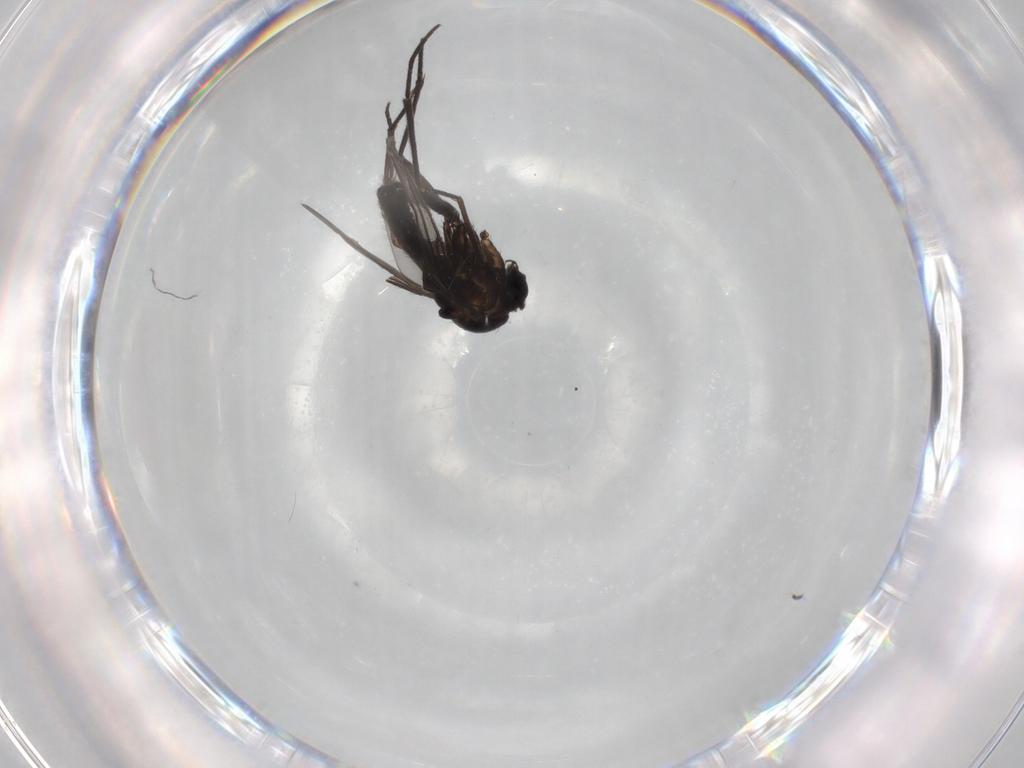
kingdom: Animalia
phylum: Arthropoda
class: Insecta
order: Diptera
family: Sciaridae
